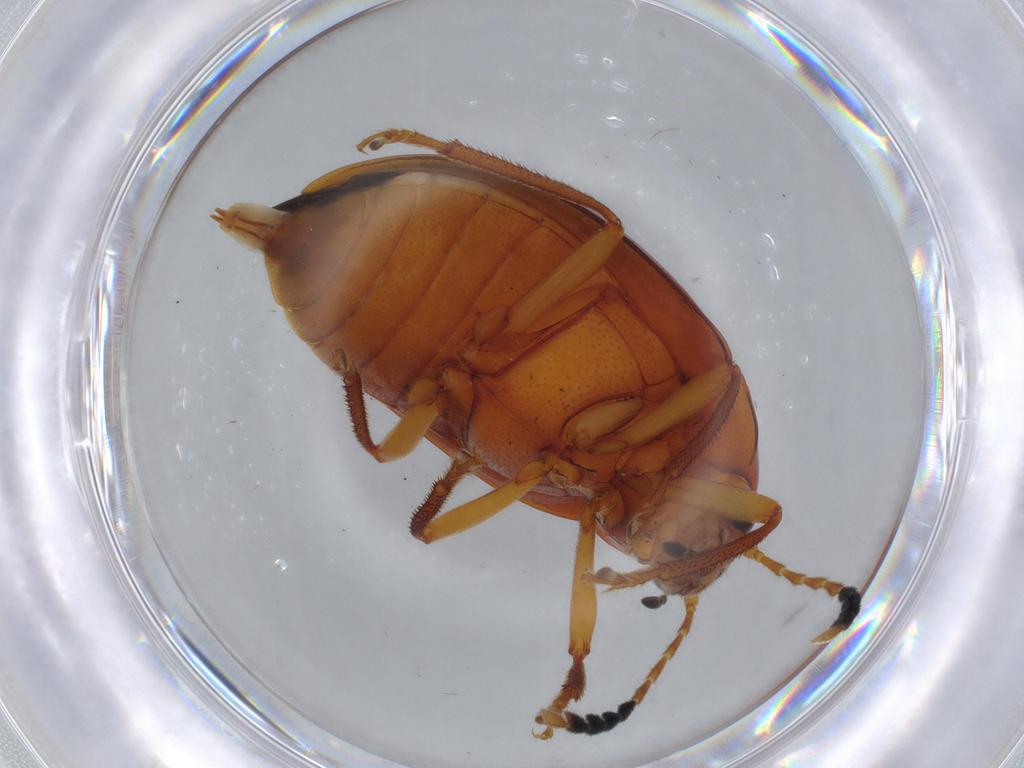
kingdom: Animalia
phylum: Arthropoda
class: Insecta
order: Coleoptera
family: Ptilodactylidae
